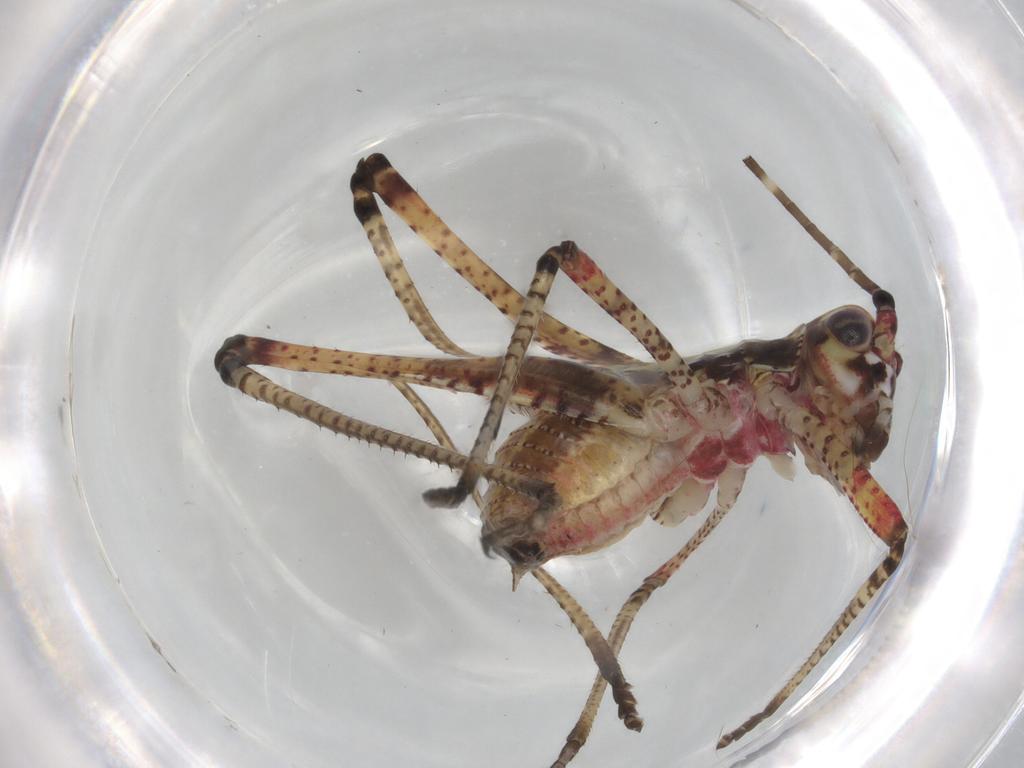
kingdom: Animalia
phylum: Arthropoda
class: Insecta
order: Orthoptera
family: Tettigoniidae
